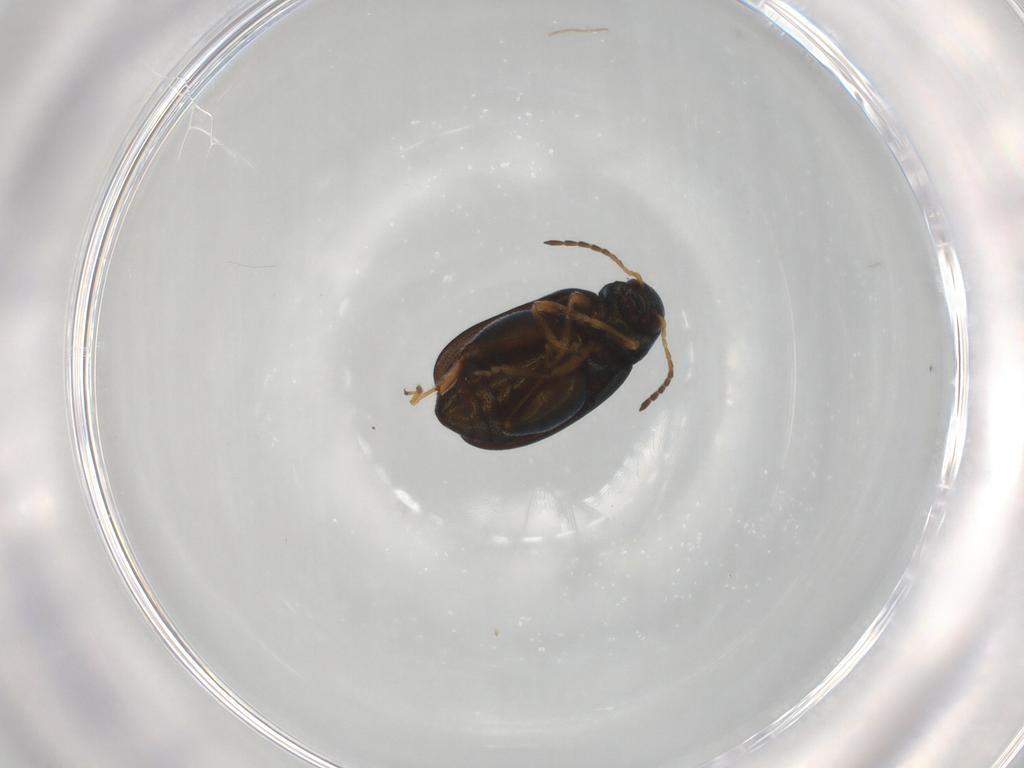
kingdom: Animalia
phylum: Arthropoda
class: Insecta
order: Coleoptera
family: Chrysomelidae
